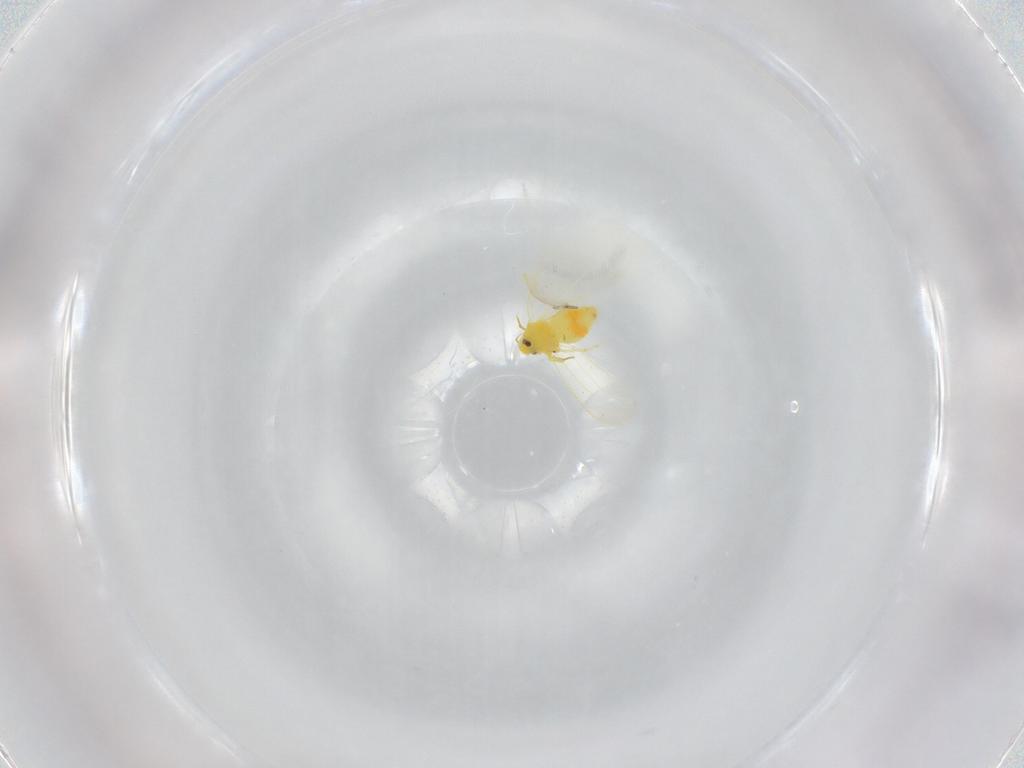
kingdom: Animalia
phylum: Arthropoda
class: Insecta
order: Hemiptera
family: Aleyrodidae
